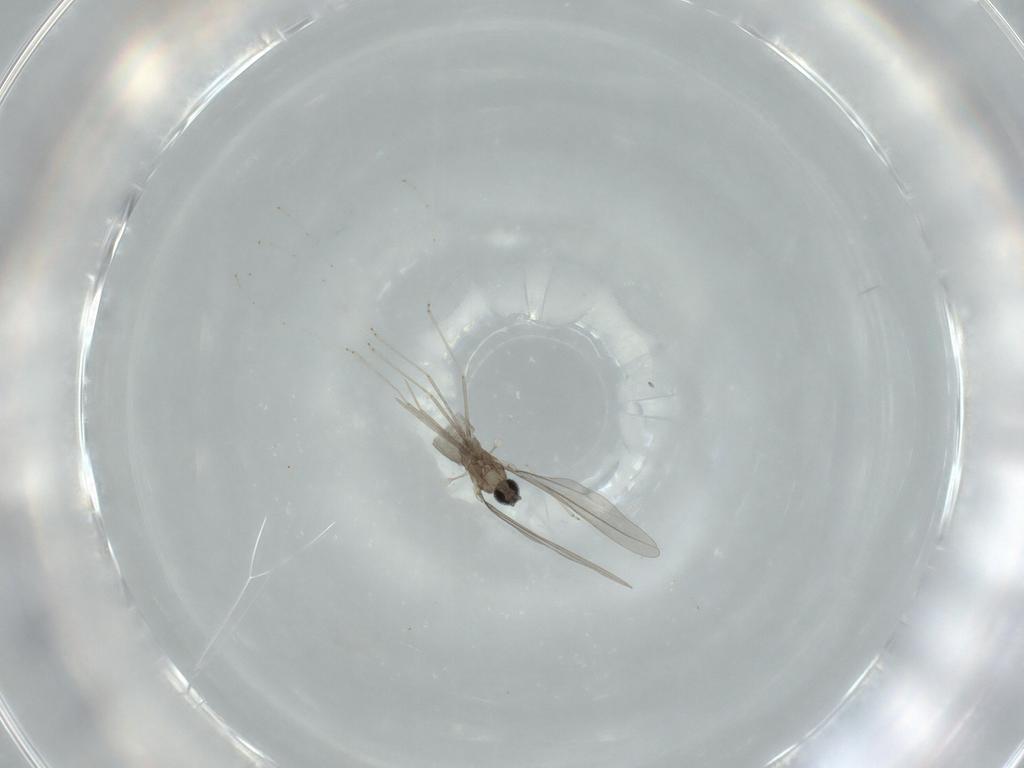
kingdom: Animalia
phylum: Arthropoda
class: Insecta
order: Diptera
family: Cecidomyiidae
